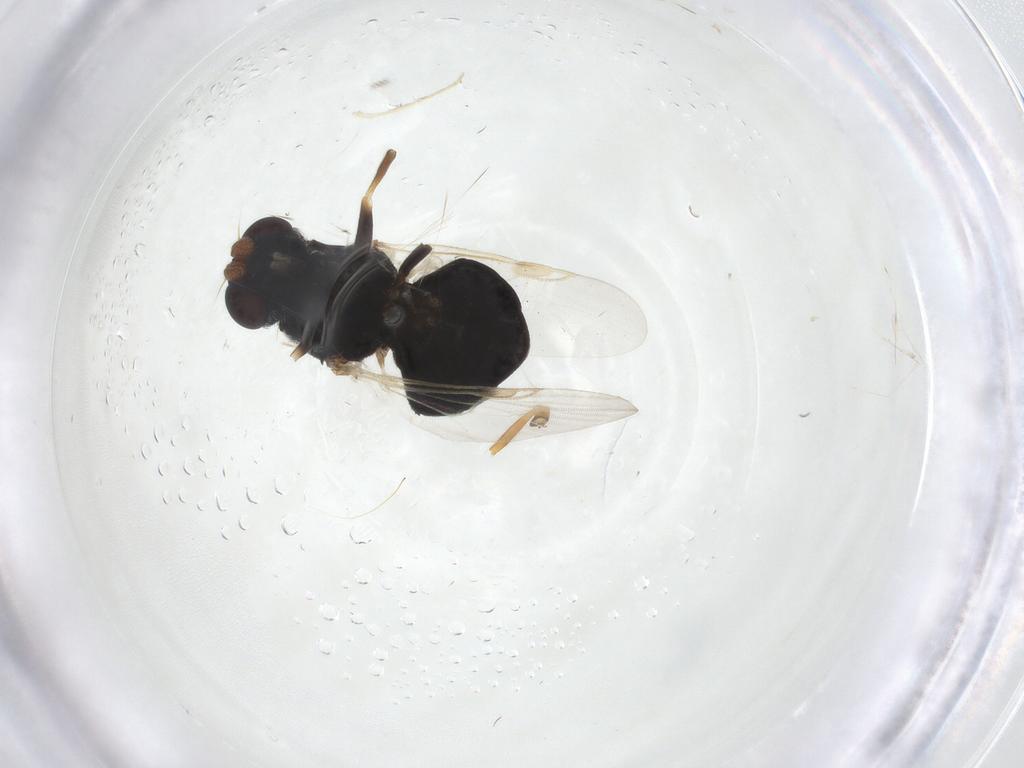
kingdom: Animalia
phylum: Arthropoda
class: Insecta
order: Diptera
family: Stratiomyidae
